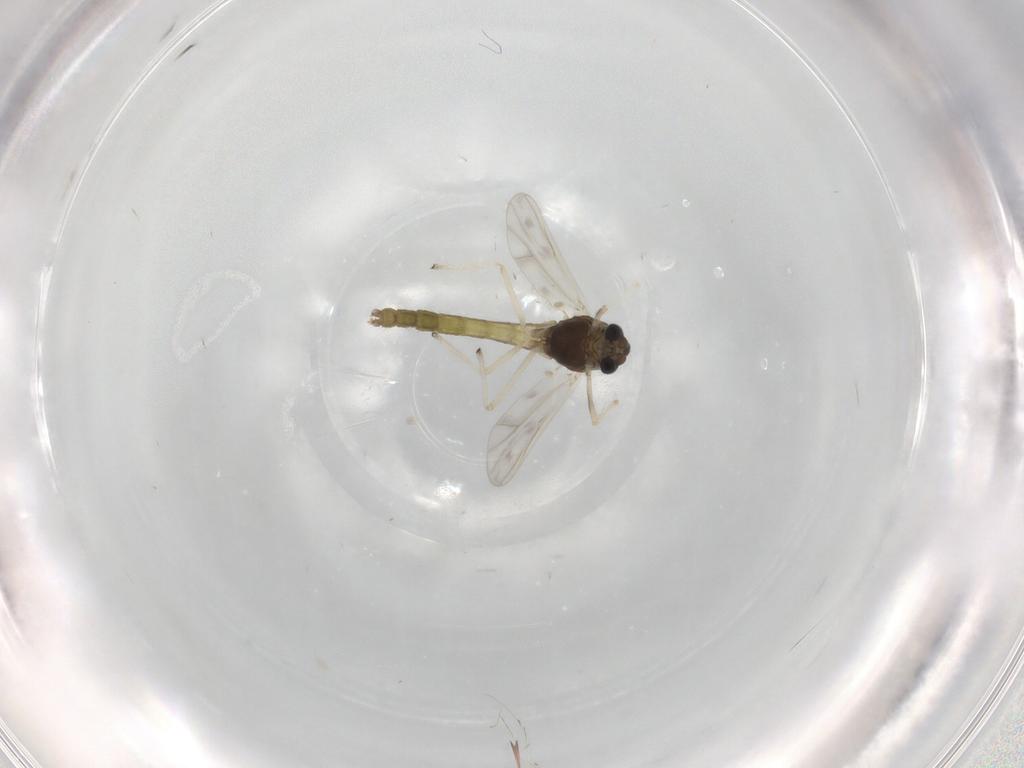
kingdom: Animalia
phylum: Arthropoda
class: Insecta
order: Diptera
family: Chironomidae
